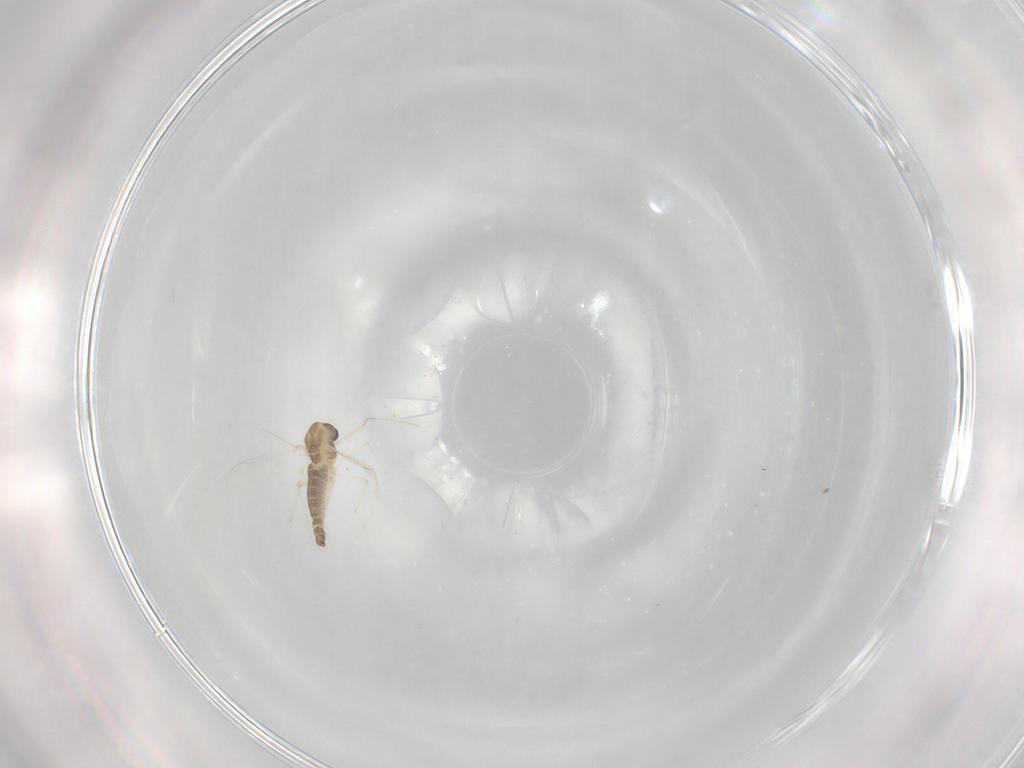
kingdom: Animalia
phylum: Arthropoda
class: Insecta
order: Diptera
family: Chironomidae
